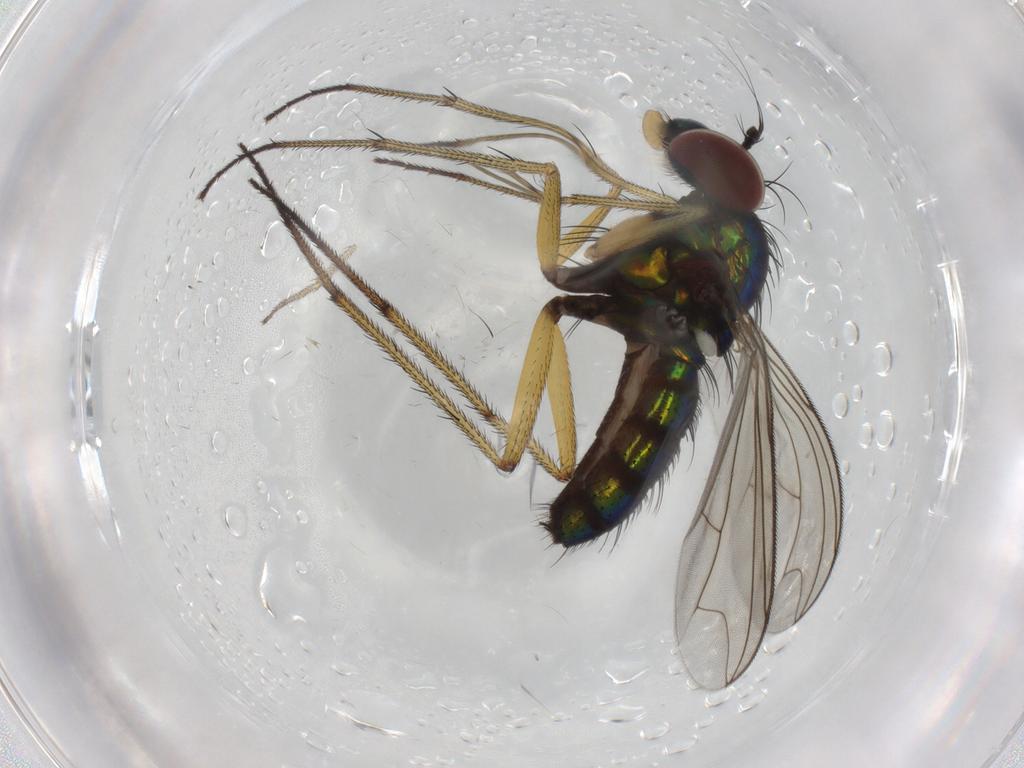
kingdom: Animalia
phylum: Arthropoda
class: Insecta
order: Diptera
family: Dolichopodidae
